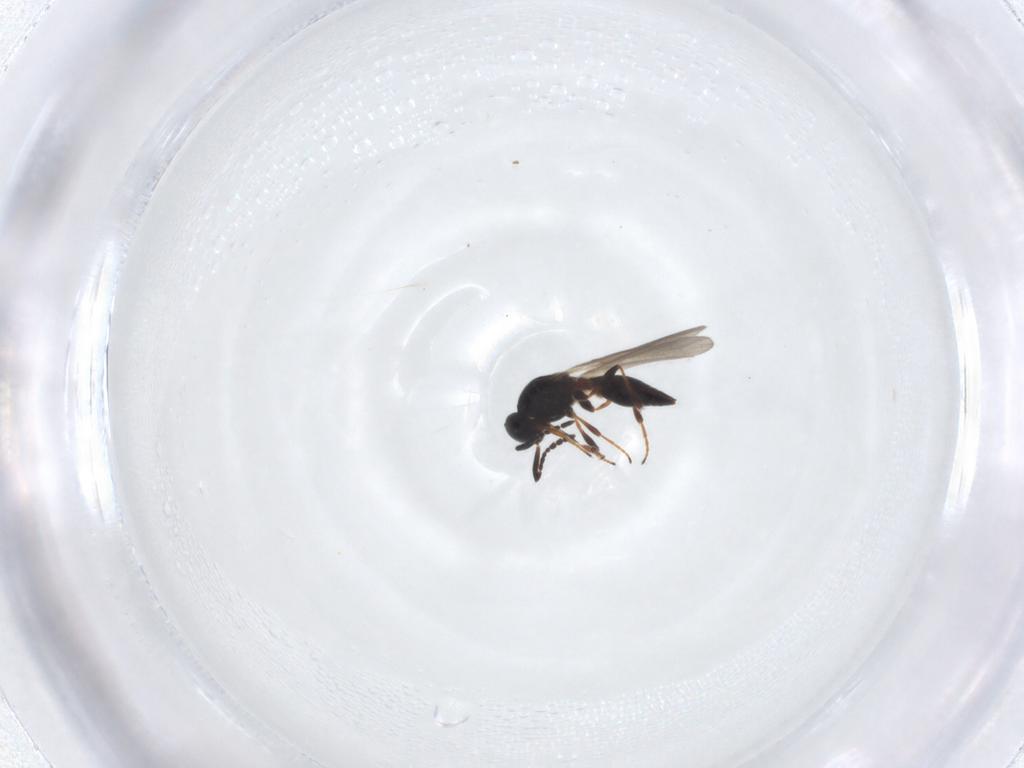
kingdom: Animalia
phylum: Arthropoda
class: Insecta
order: Hymenoptera
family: Platygastridae
